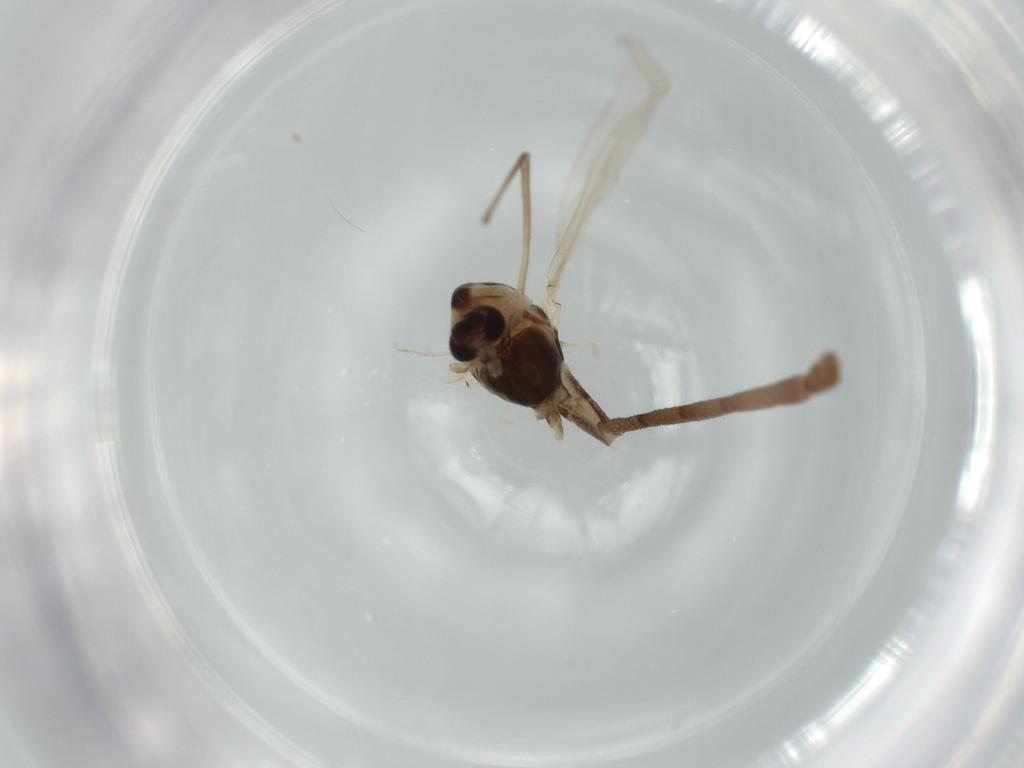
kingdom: Animalia
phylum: Arthropoda
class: Insecta
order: Diptera
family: Chironomidae
